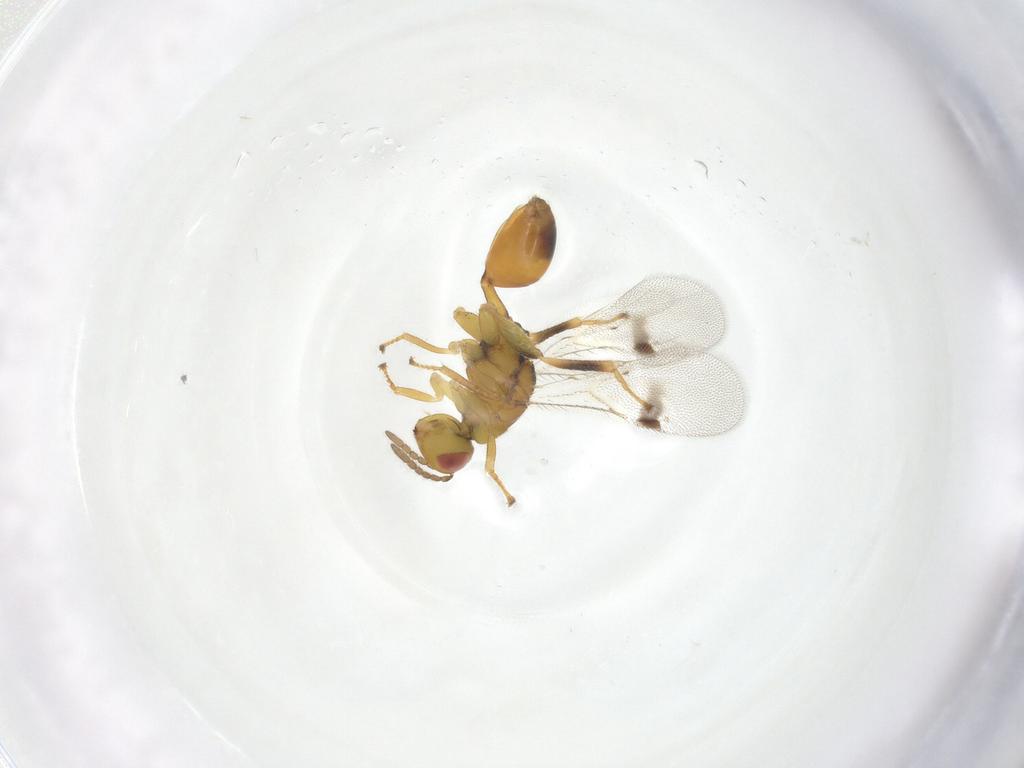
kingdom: Animalia
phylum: Arthropoda
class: Insecta
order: Hymenoptera
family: Eurytomidae
